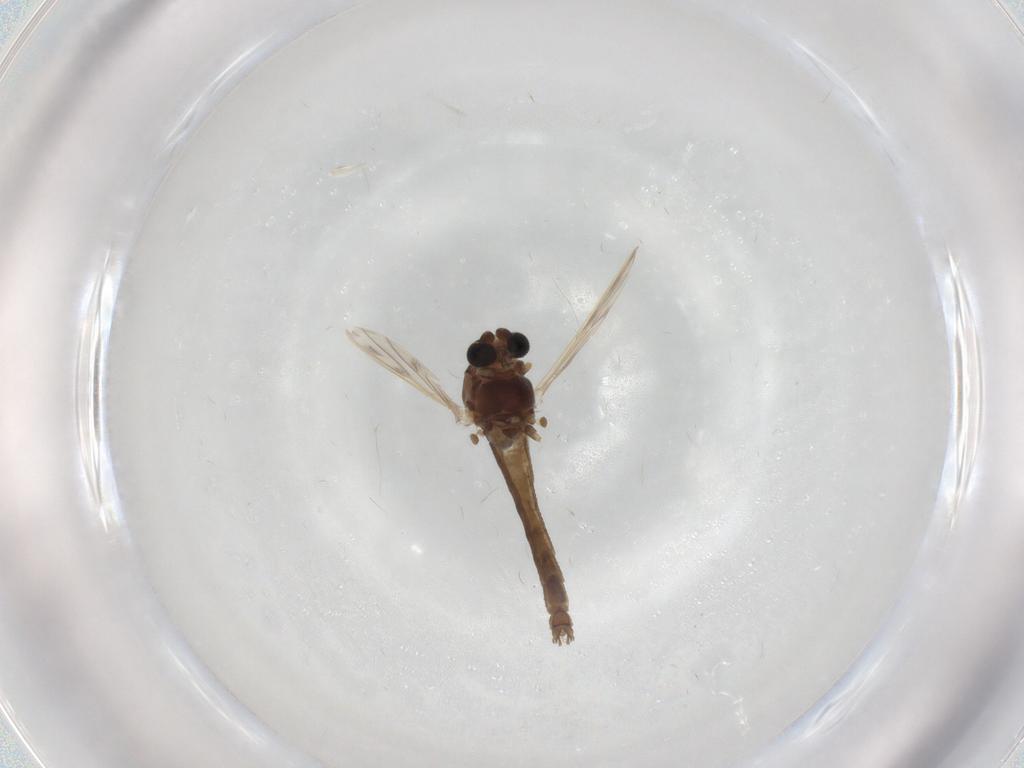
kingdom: Animalia
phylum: Arthropoda
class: Insecta
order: Diptera
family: Chironomidae
